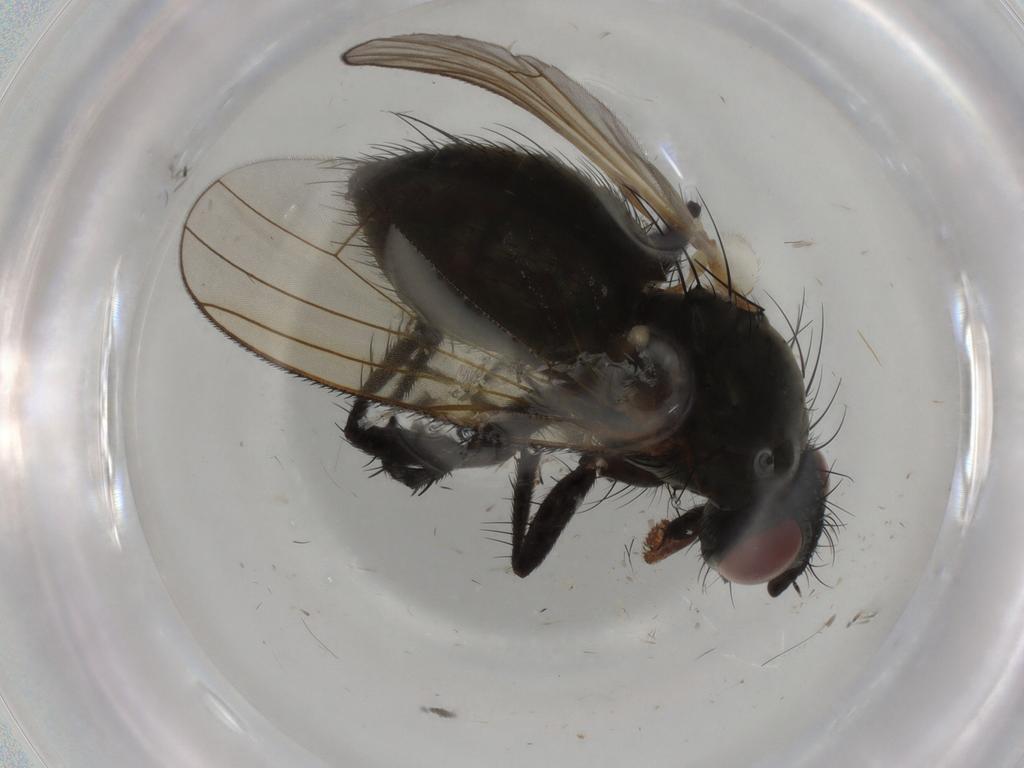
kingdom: Animalia
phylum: Arthropoda
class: Insecta
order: Diptera
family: Anthomyiidae
